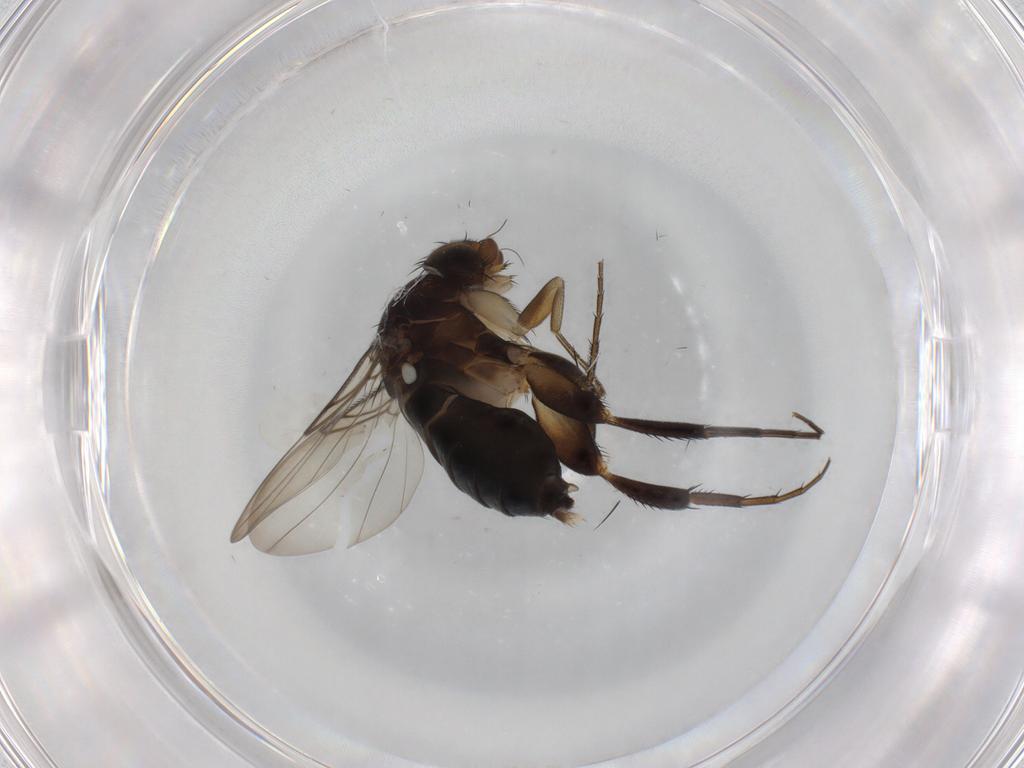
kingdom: Animalia
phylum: Arthropoda
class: Insecta
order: Diptera
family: Phoridae
